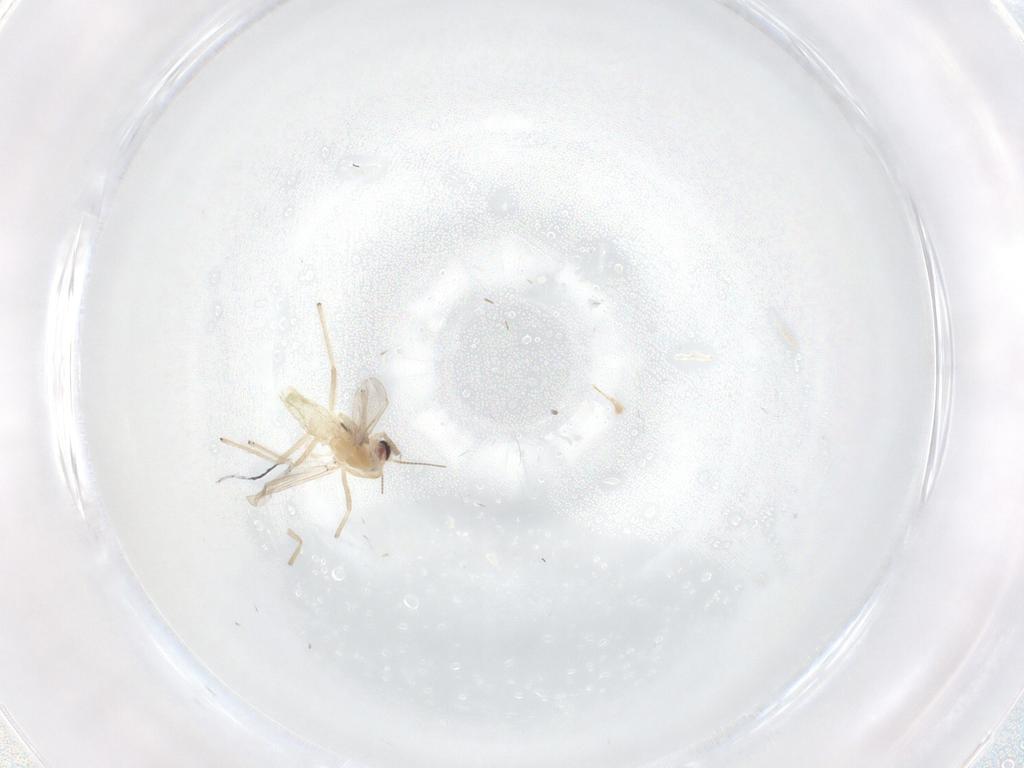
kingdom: Animalia
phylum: Arthropoda
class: Insecta
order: Diptera
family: Chironomidae
